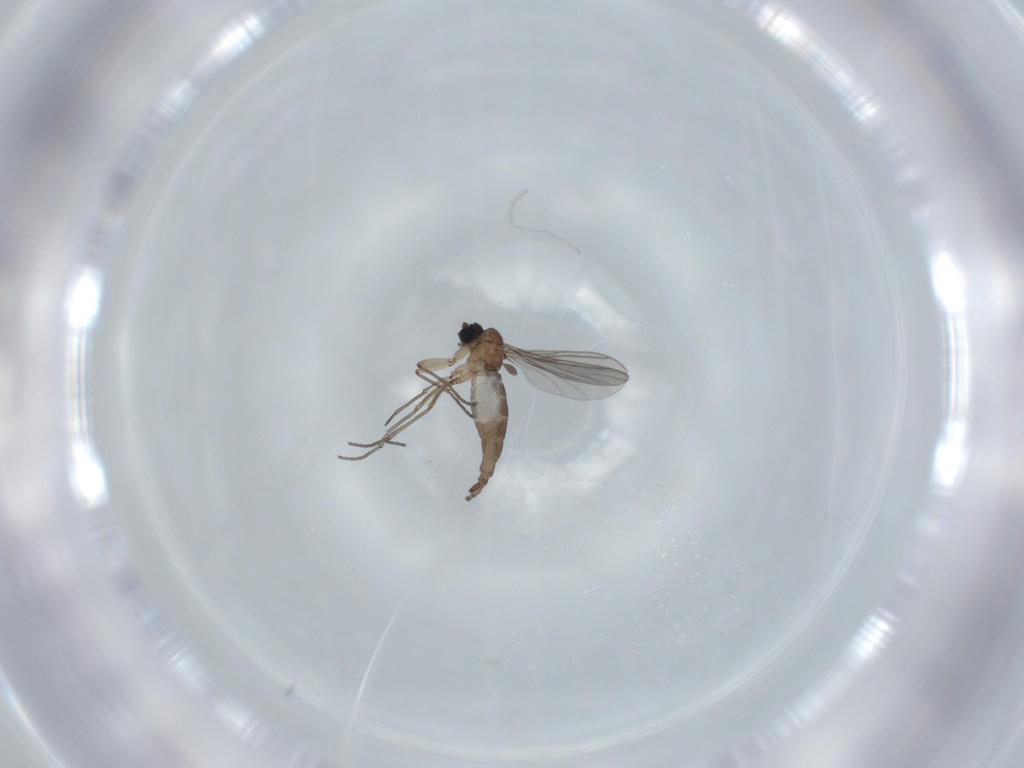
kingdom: Animalia
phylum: Arthropoda
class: Insecta
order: Diptera
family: Sciaridae
